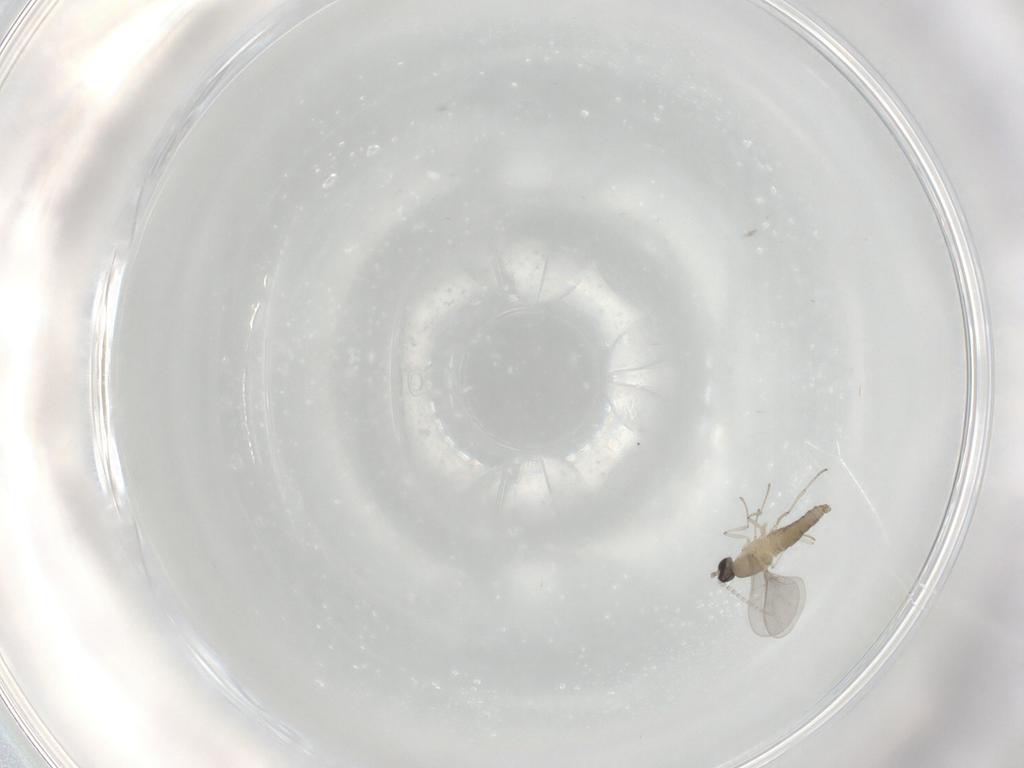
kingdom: Animalia
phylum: Arthropoda
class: Insecta
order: Diptera
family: Cecidomyiidae
